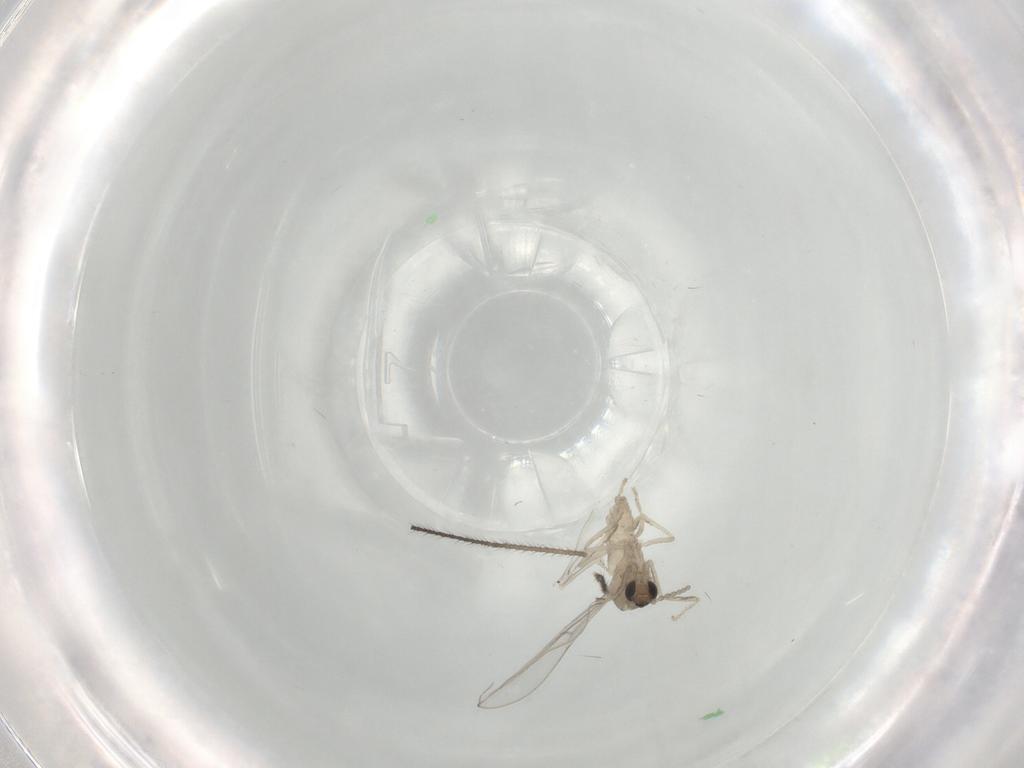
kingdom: Animalia
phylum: Arthropoda
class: Insecta
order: Diptera
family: Cecidomyiidae
